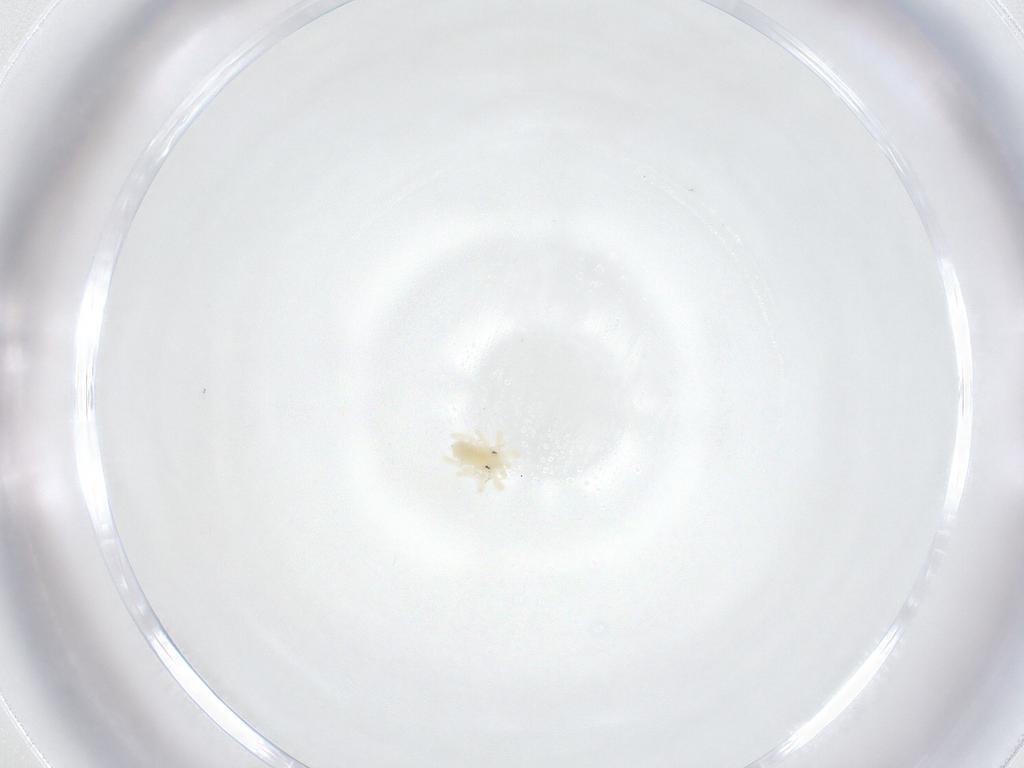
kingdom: Animalia
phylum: Arthropoda
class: Arachnida
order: Trombidiformes
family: Anystidae
